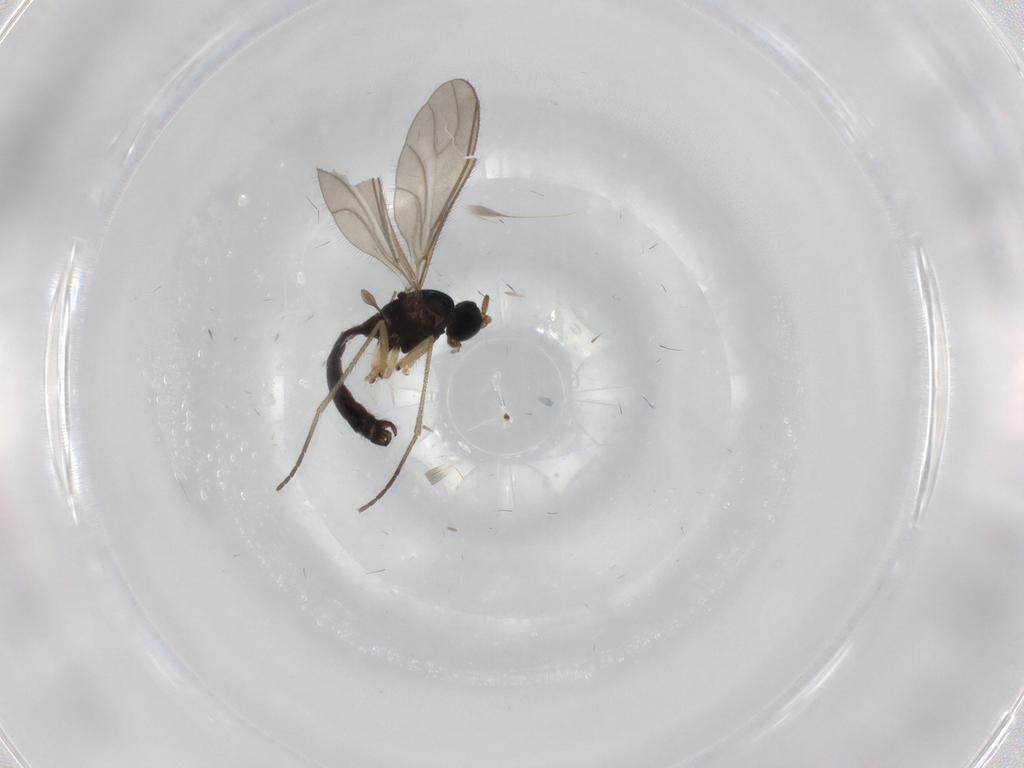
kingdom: Animalia
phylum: Arthropoda
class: Insecta
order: Diptera
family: Sciaridae
